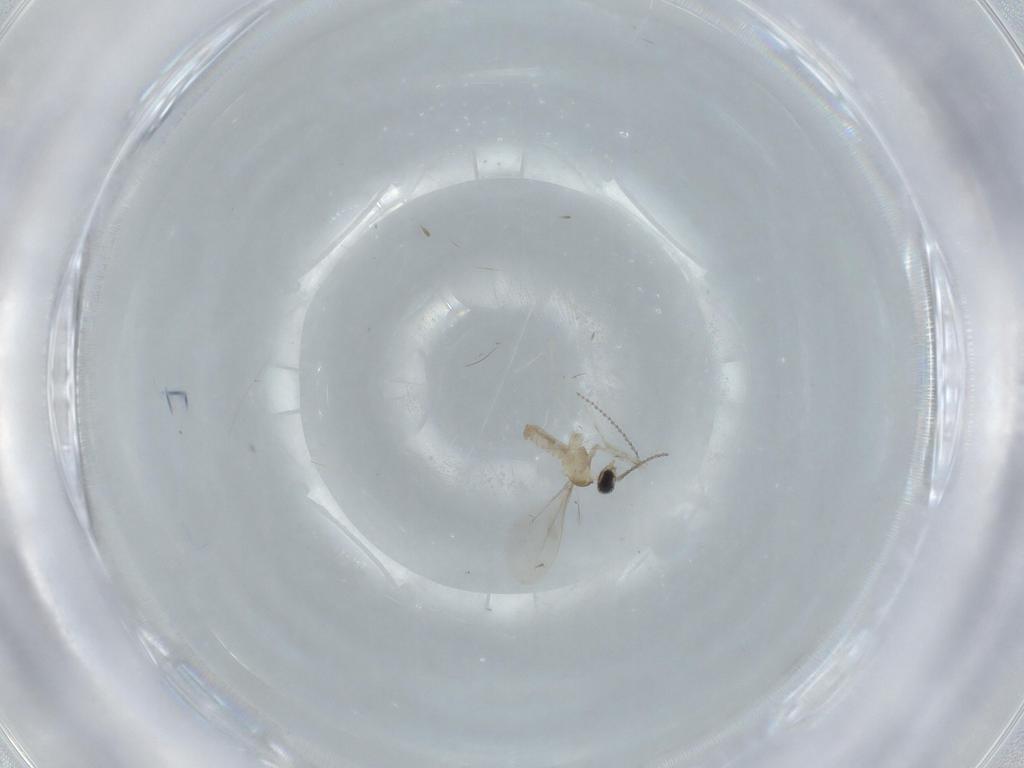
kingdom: Animalia
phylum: Arthropoda
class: Insecta
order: Diptera
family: Cecidomyiidae
